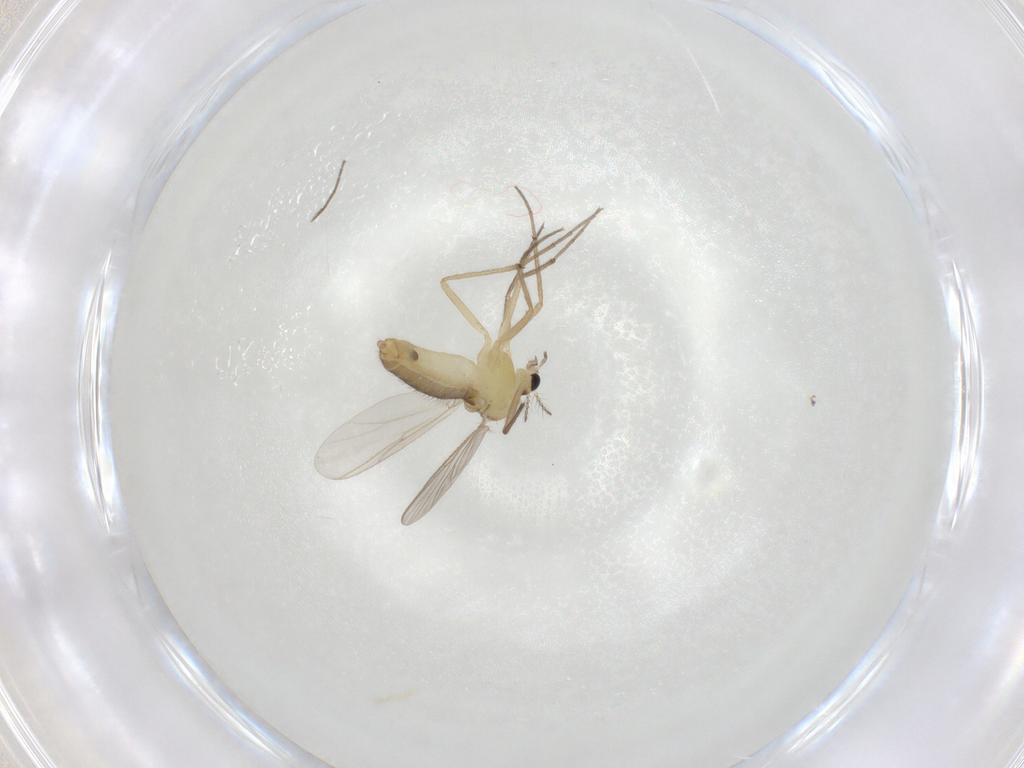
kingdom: Animalia
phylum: Arthropoda
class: Insecta
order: Diptera
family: Chironomidae
